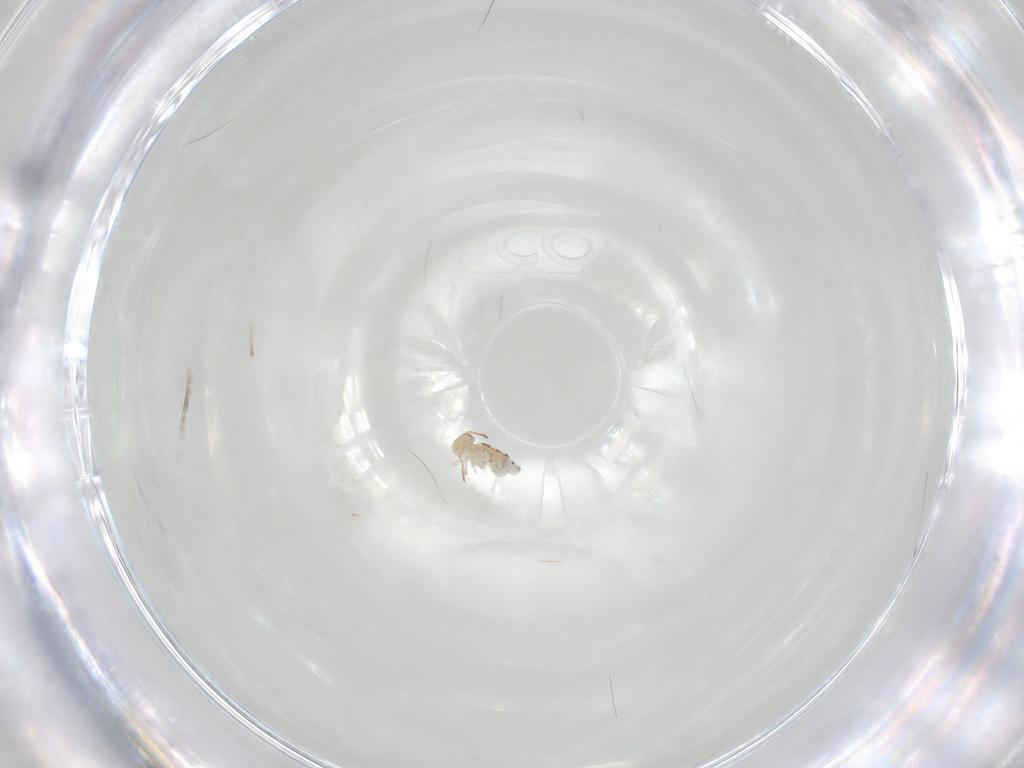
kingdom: Animalia
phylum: Arthropoda
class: Collembola
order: Symphypleona
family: Bourletiellidae
